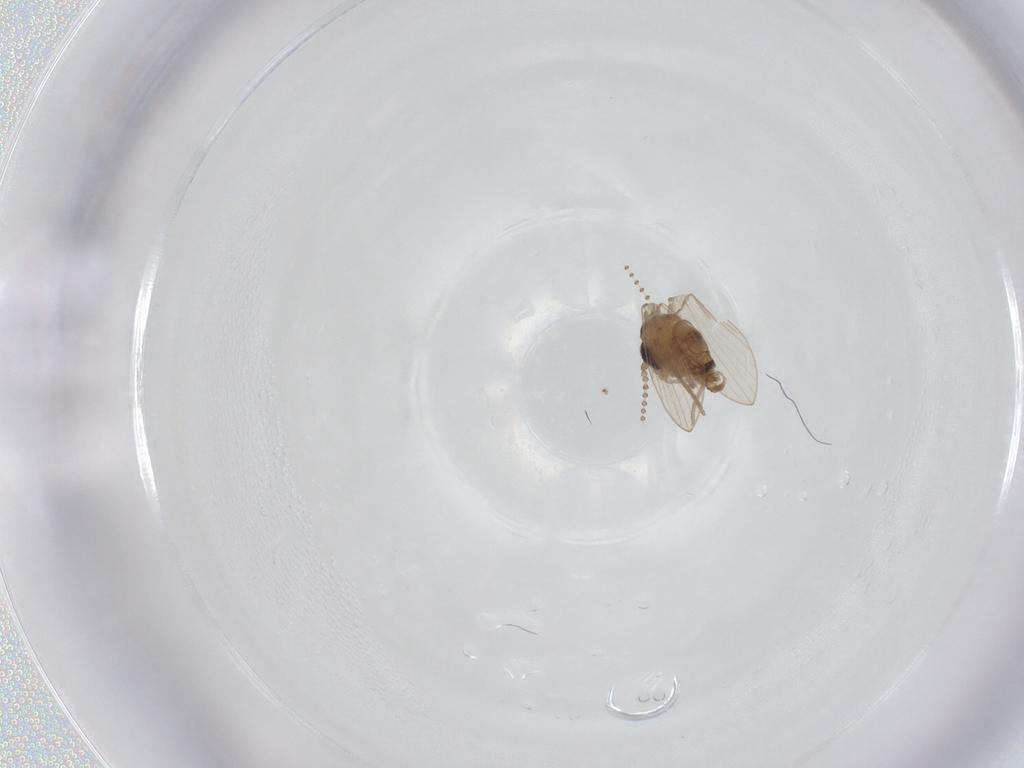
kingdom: Animalia
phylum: Arthropoda
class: Insecta
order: Diptera
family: Psychodidae
